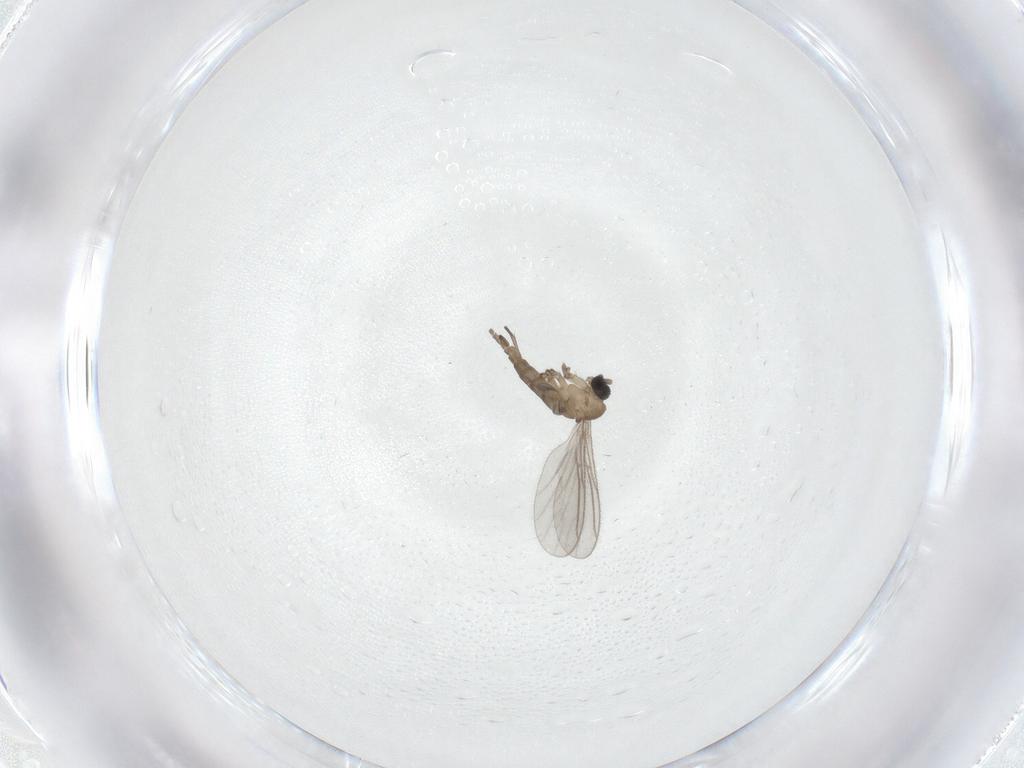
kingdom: Animalia
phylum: Arthropoda
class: Insecta
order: Diptera
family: Sciaridae
